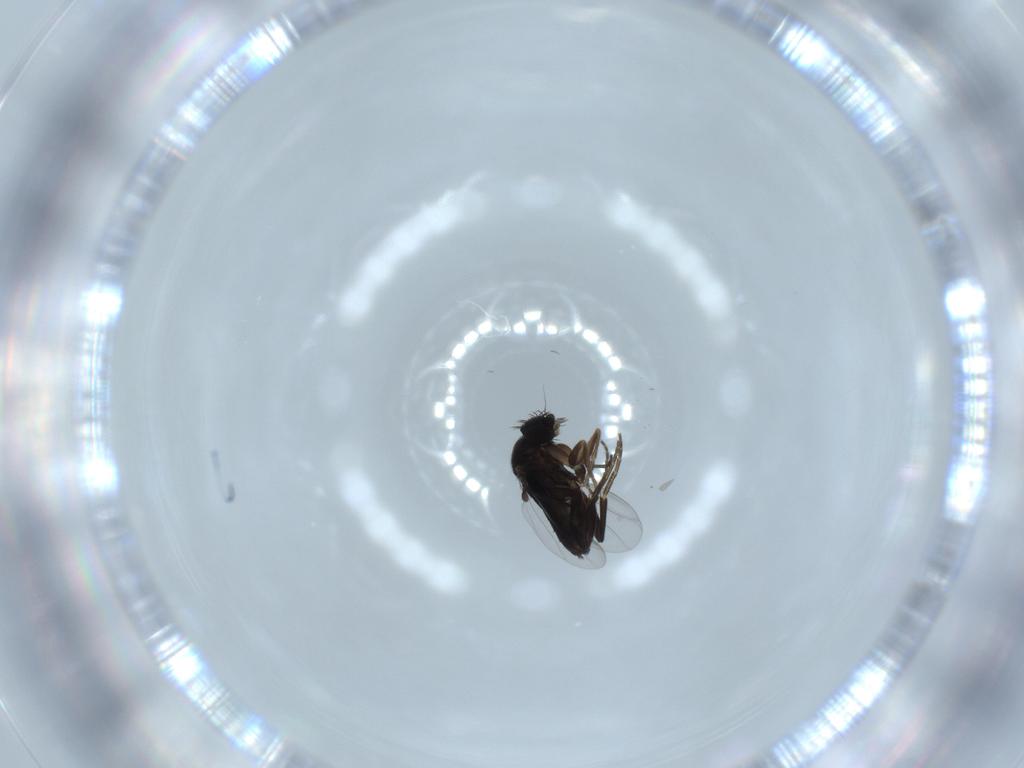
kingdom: Animalia
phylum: Arthropoda
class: Insecta
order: Diptera
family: Phoridae
